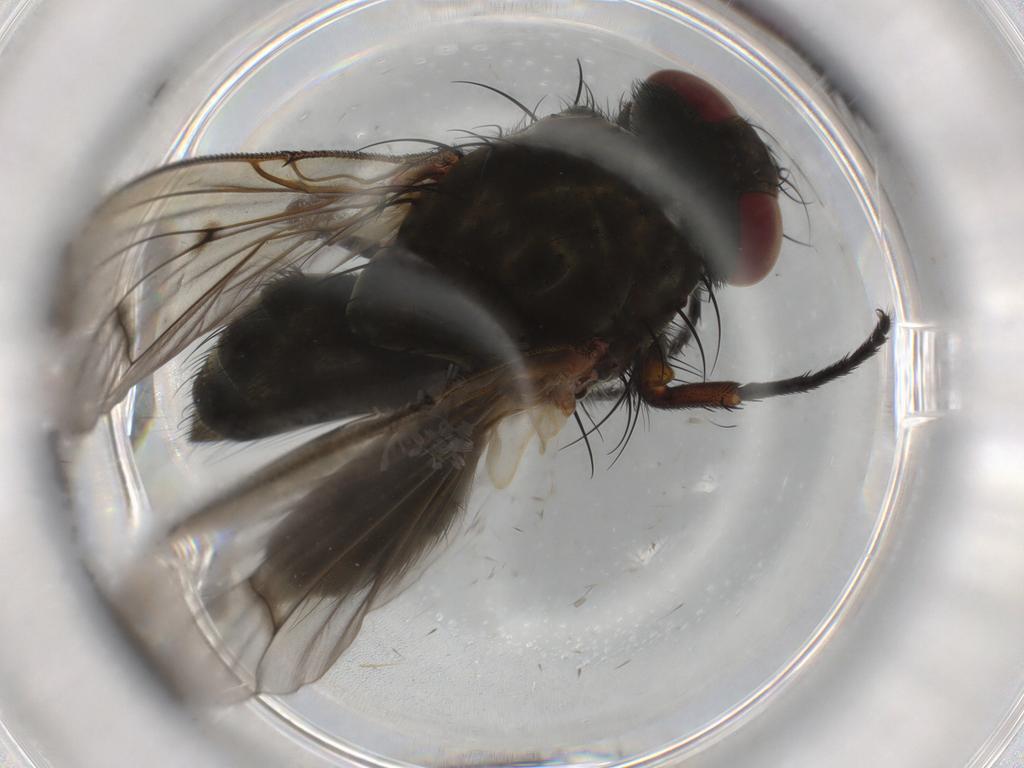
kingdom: Animalia
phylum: Arthropoda
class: Insecta
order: Diptera
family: Muscidae
